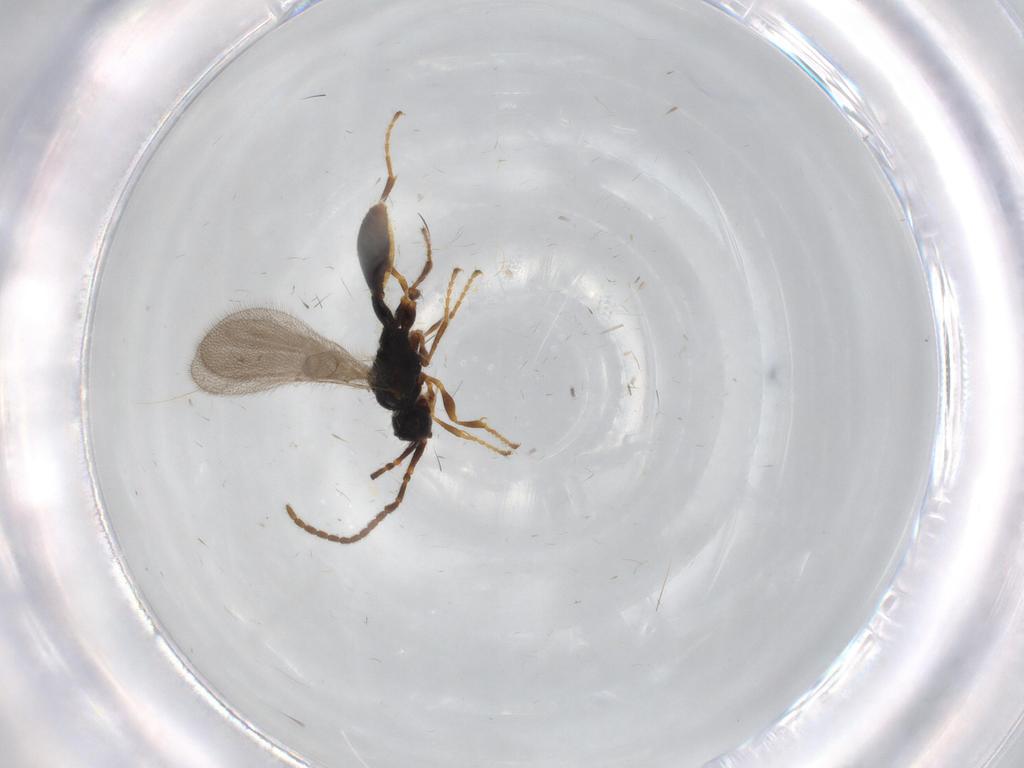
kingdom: Animalia
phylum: Arthropoda
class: Insecta
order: Hymenoptera
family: Diapriidae
